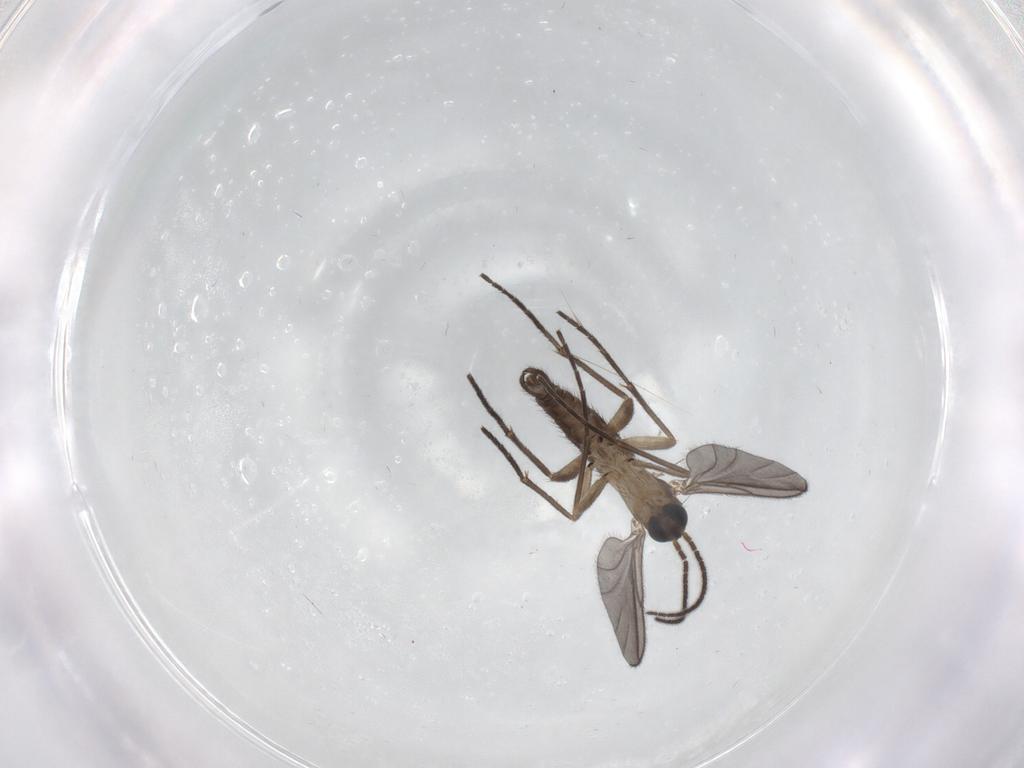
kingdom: Animalia
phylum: Arthropoda
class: Insecta
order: Diptera
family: Sciaridae
